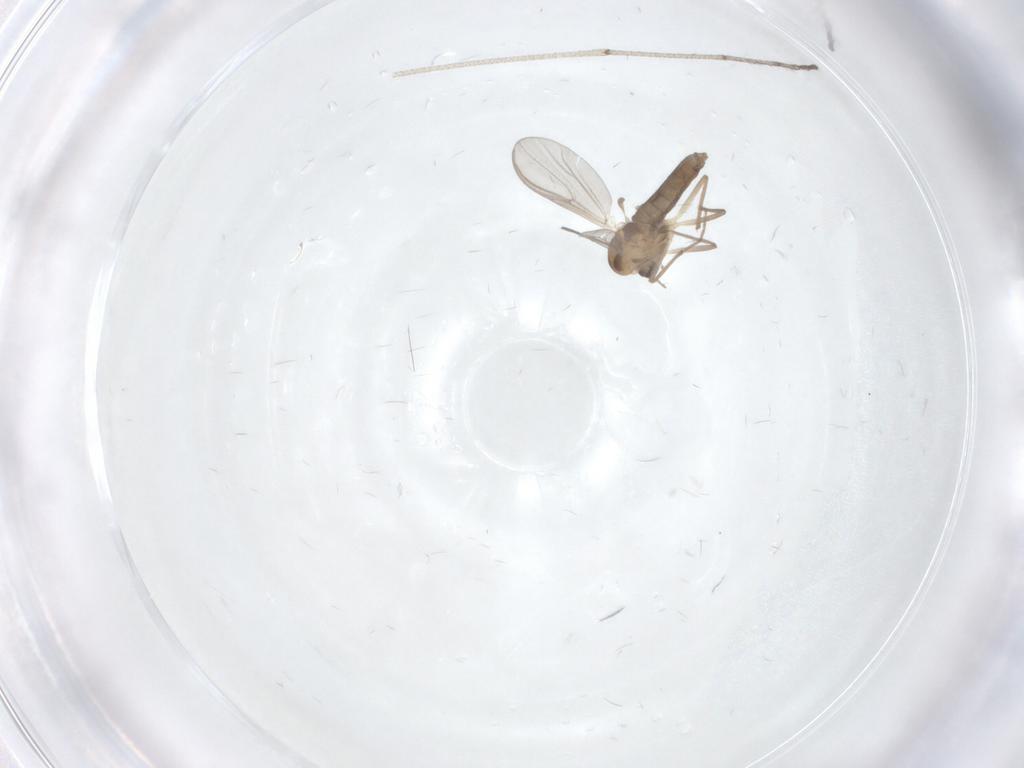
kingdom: Animalia
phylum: Arthropoda
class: Insecta
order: Diptera
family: Chironomidae
